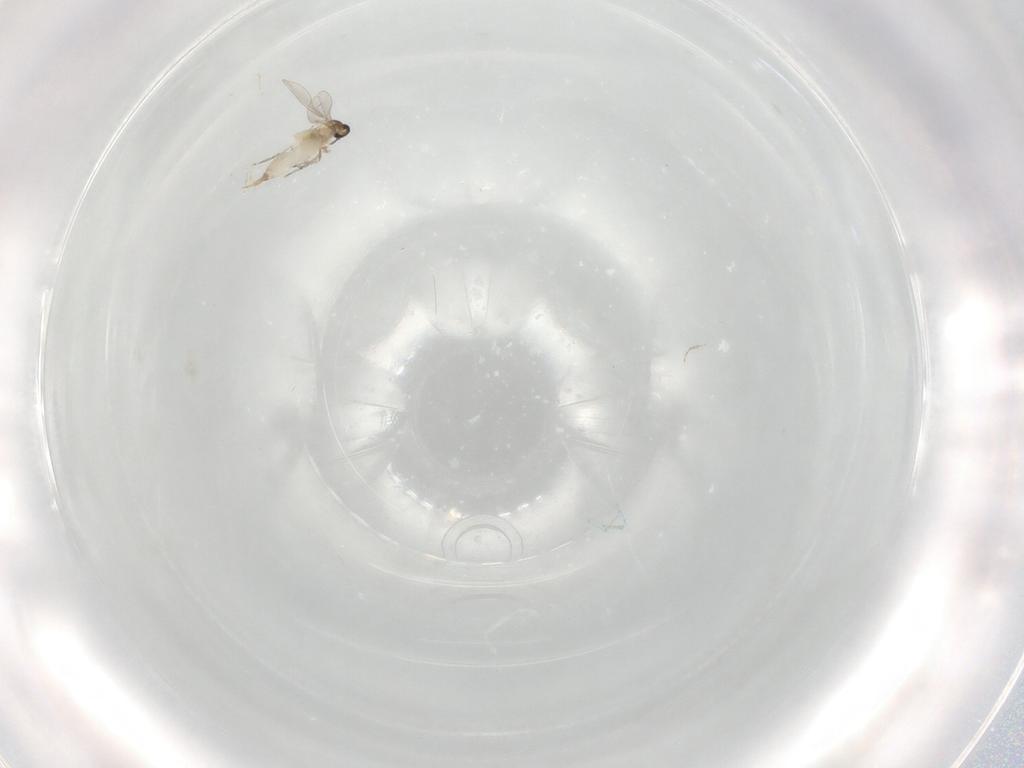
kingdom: Animalia
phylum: Arthropoda
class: Insecta
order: Diptera
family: Cecidomyiidae
